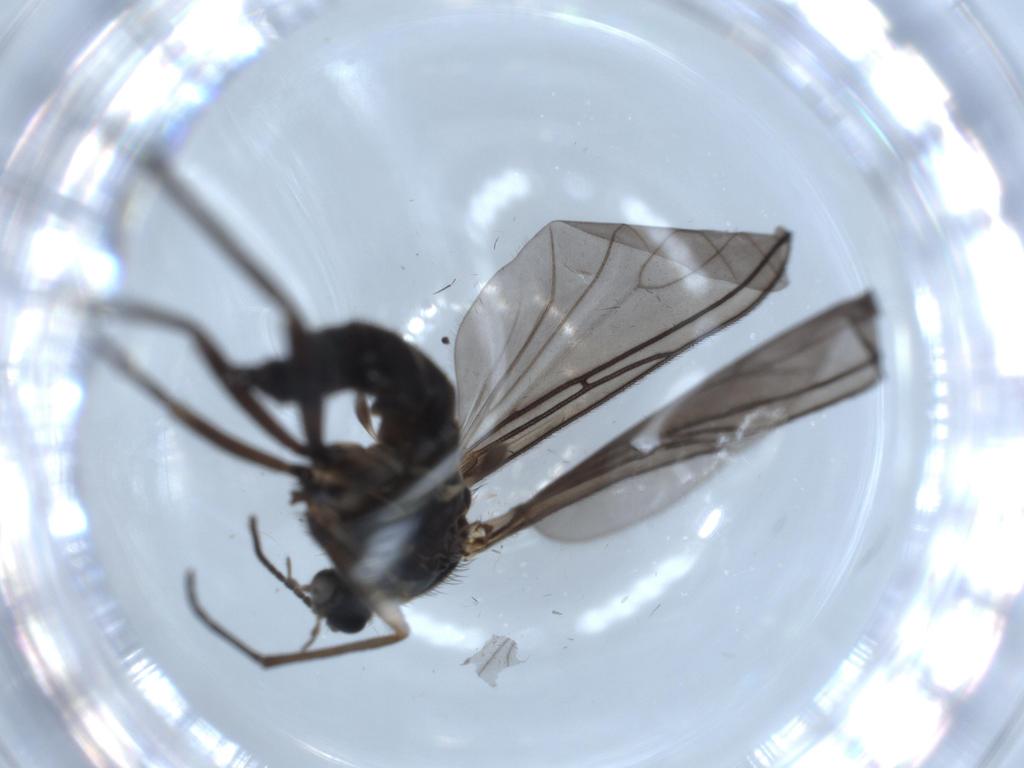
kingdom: Animalia
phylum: Arthropoda
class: Insecta
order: Diptera
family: Sciaridae
